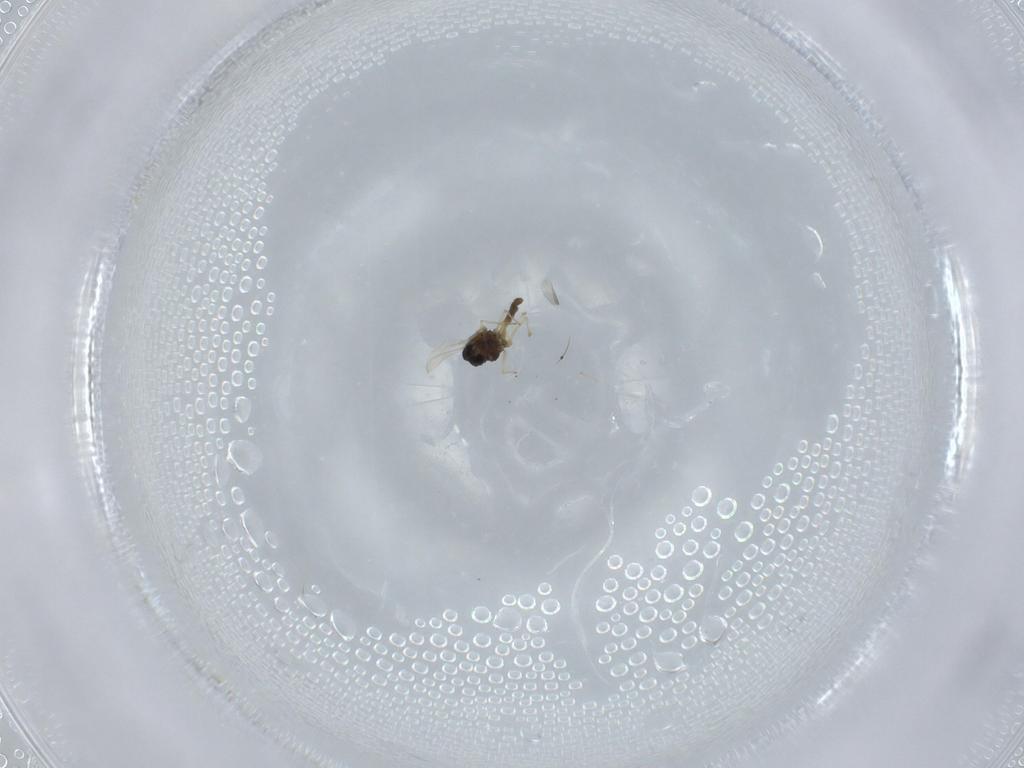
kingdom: Animalia
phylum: Arthropoda
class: Insecta
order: Diptera
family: Chironomidae
